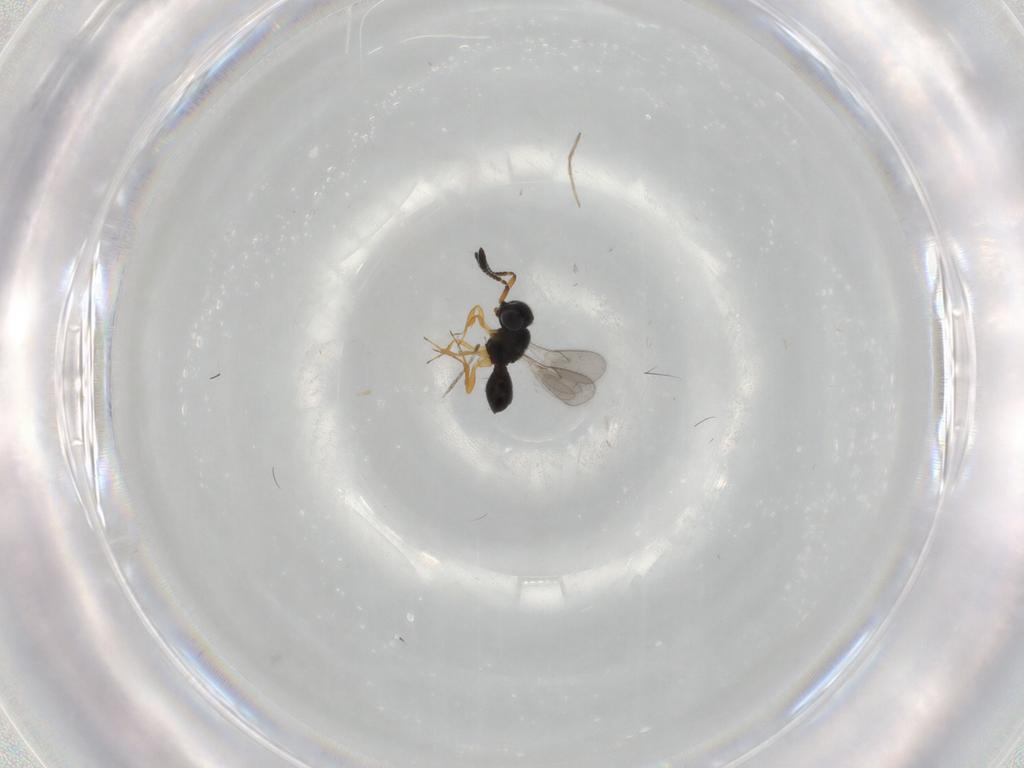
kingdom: Animalia
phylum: Arthropoda
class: Insecta
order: Hymenoptera
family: Scelionidae
